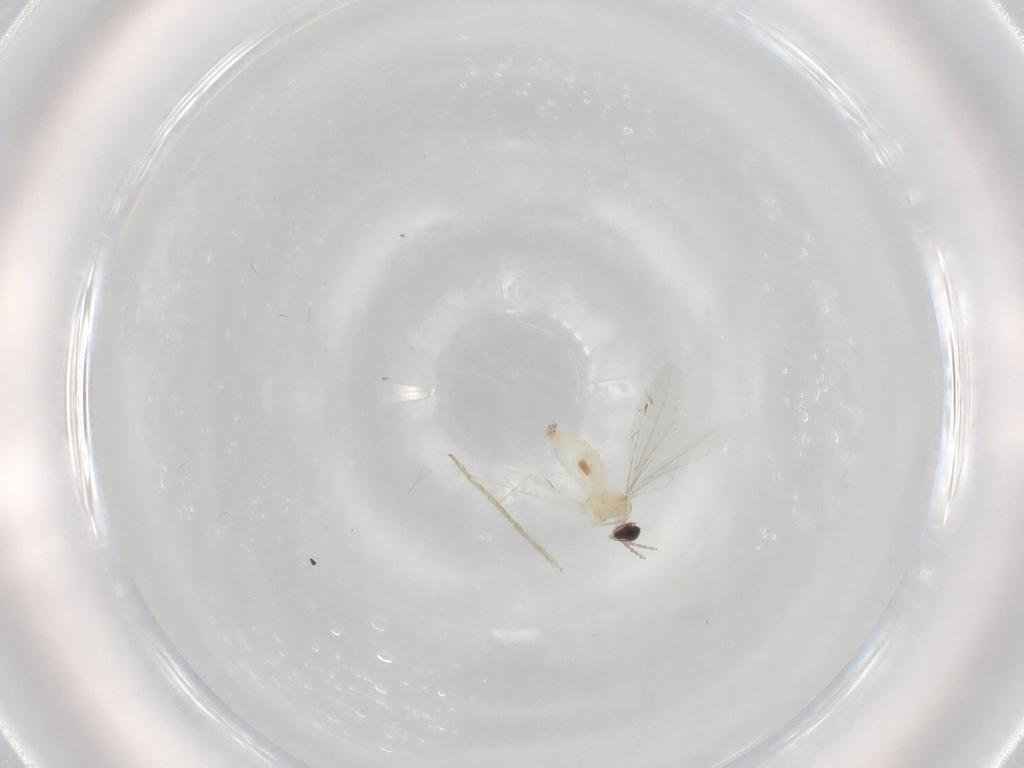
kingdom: Animalia
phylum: Arthropoda
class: Insecta
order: Diptera
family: Cecidomyiidae
